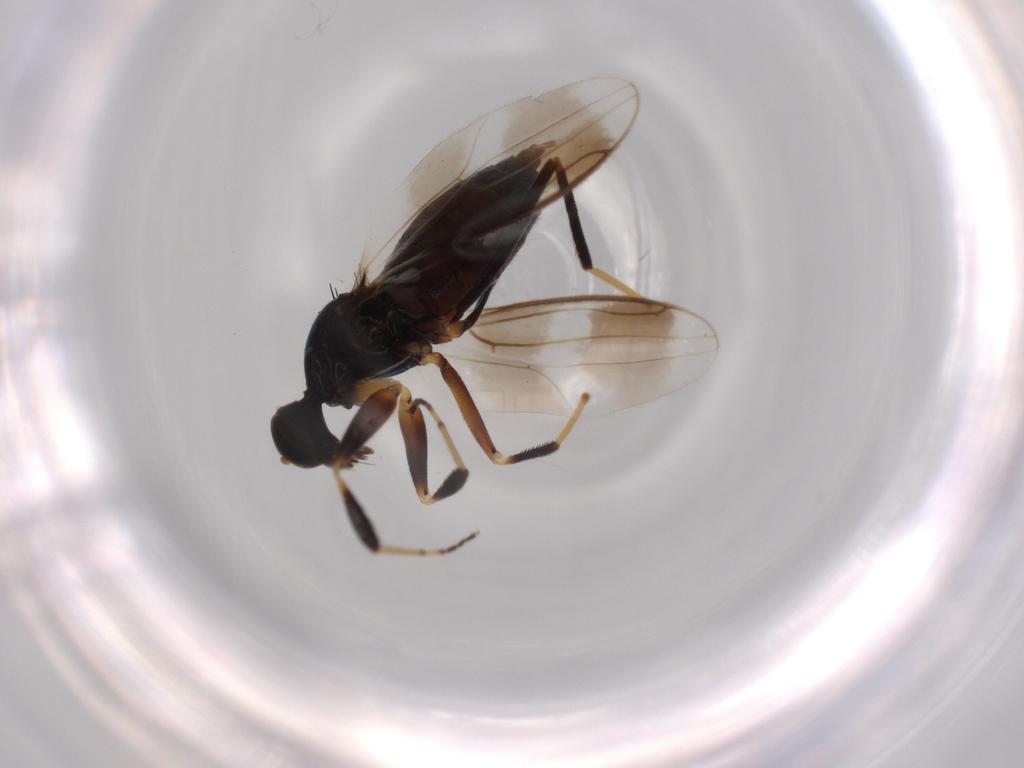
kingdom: Animalia
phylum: Arthropoda
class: Insecta
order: Diptera
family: Hybotidae
